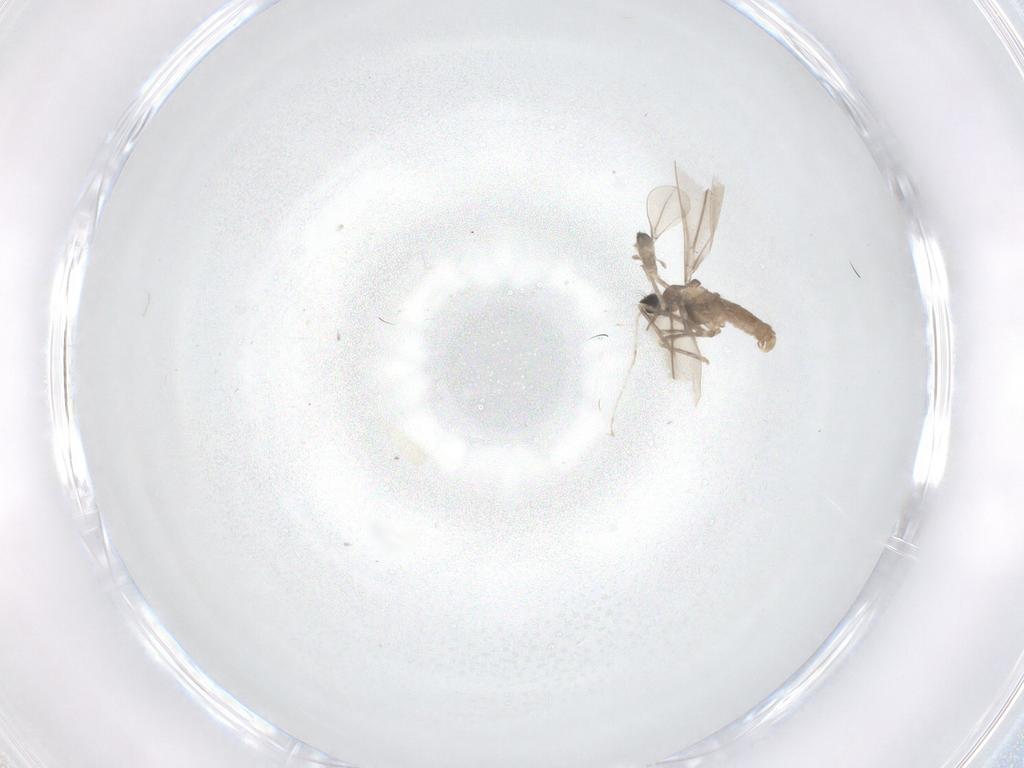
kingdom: Animalia
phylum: Arthropoda
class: Insecta
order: Diptera
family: Cecidomyiidae
